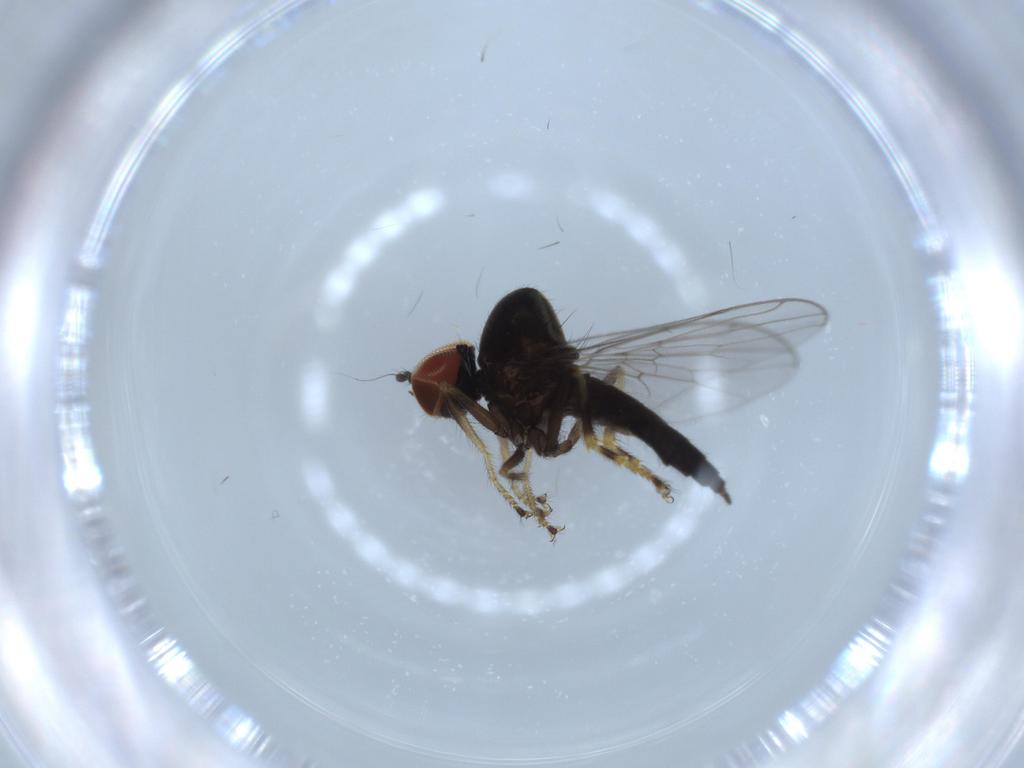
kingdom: Animalia
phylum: Arthropoda
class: Insecta
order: Diptera
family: Hybotidae
